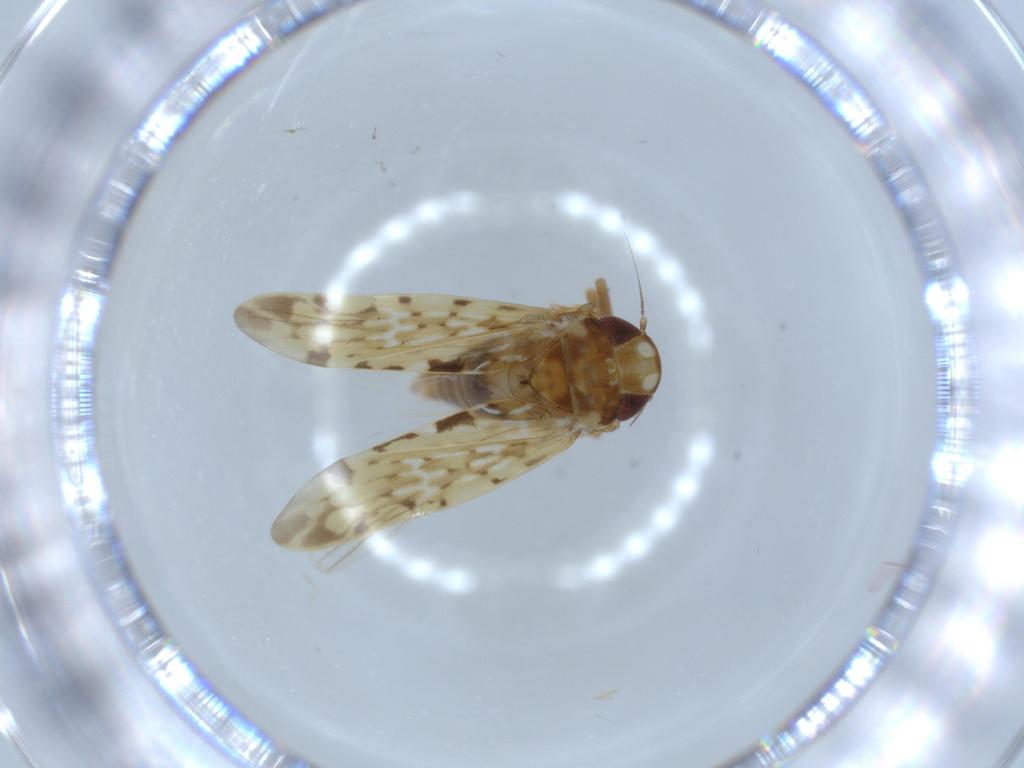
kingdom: Animalia
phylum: Arthropoda
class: Insecta
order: Hemiptera
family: Cicadellidae
